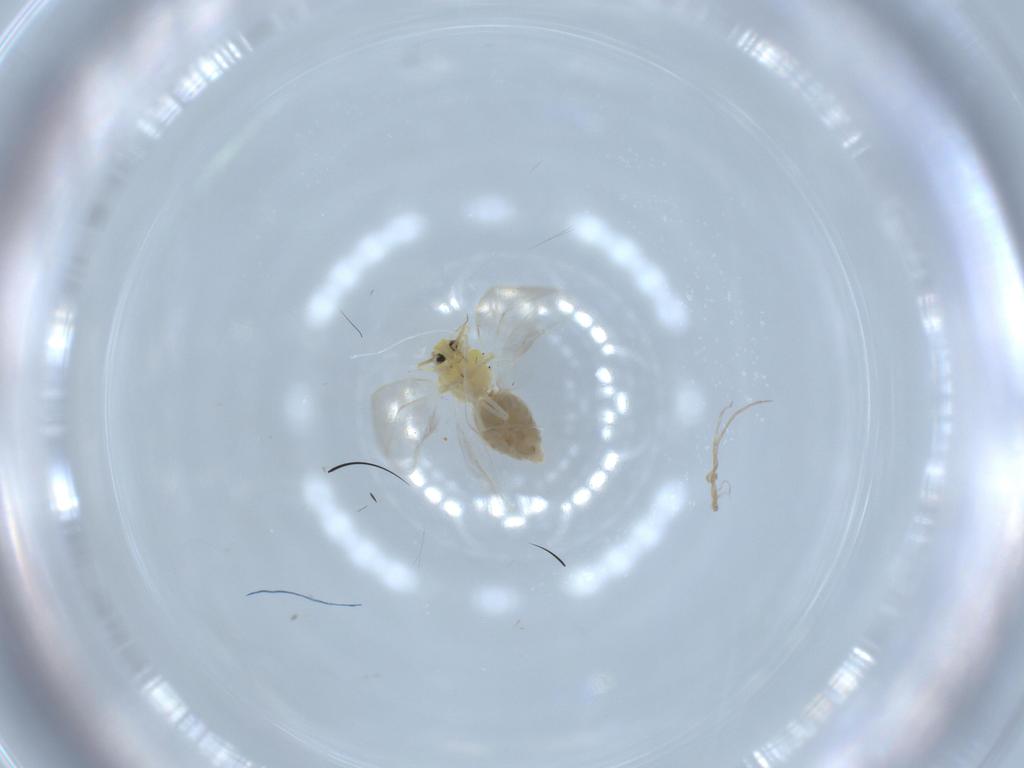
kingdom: Animalia
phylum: Arthropoda
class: Insecta
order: Hemiptera
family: Aleyrodidae
